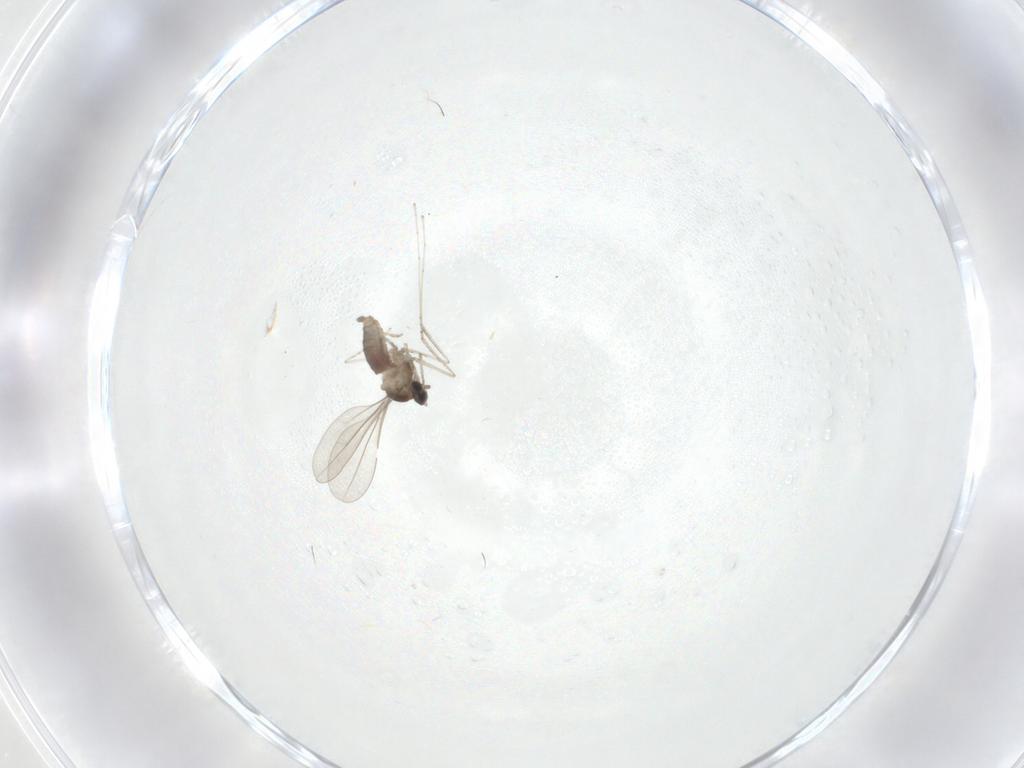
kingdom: Animalia
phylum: Arthropoda
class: Insecta
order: Diptera
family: Cecidomyiidae
